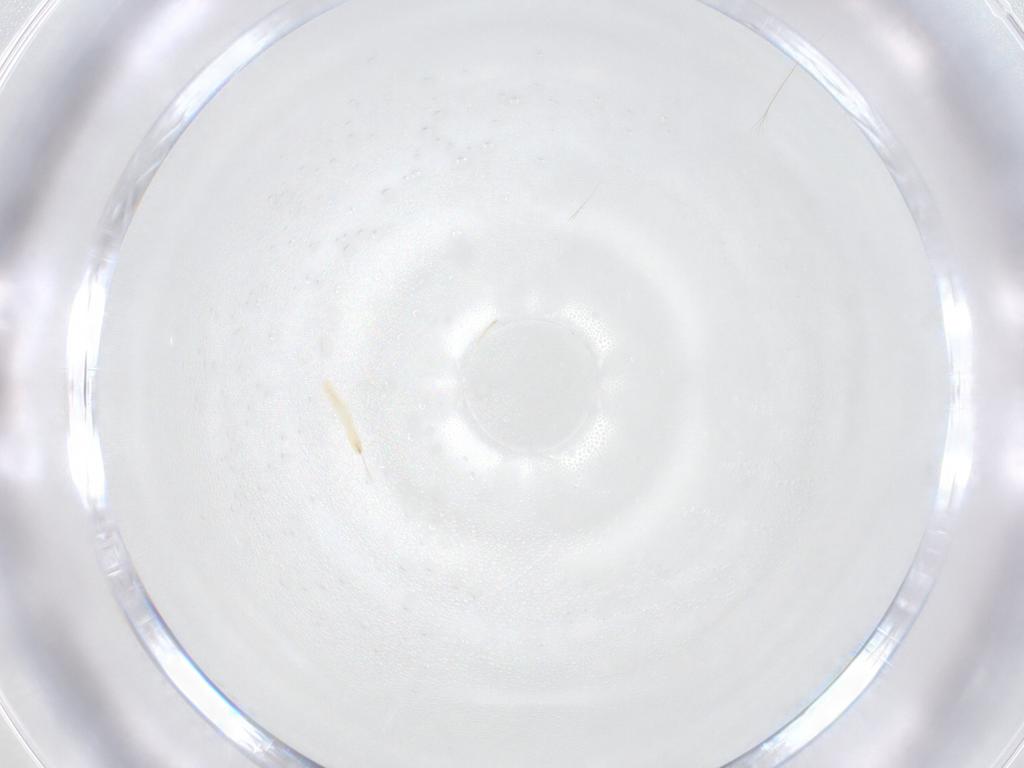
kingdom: Animalia
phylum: Arthropoda
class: Insecta
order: Diptera
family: Tachinidae
